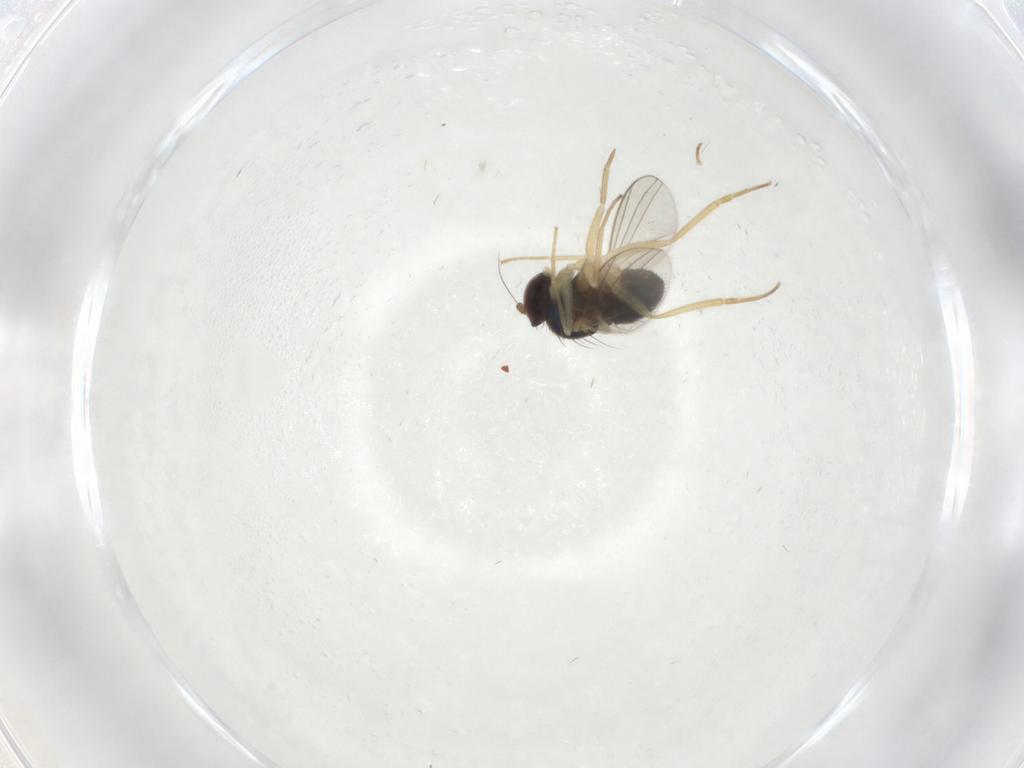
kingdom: Animalia
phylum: Arthropoda
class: Insecta
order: Diptera
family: Dolichopodidae
